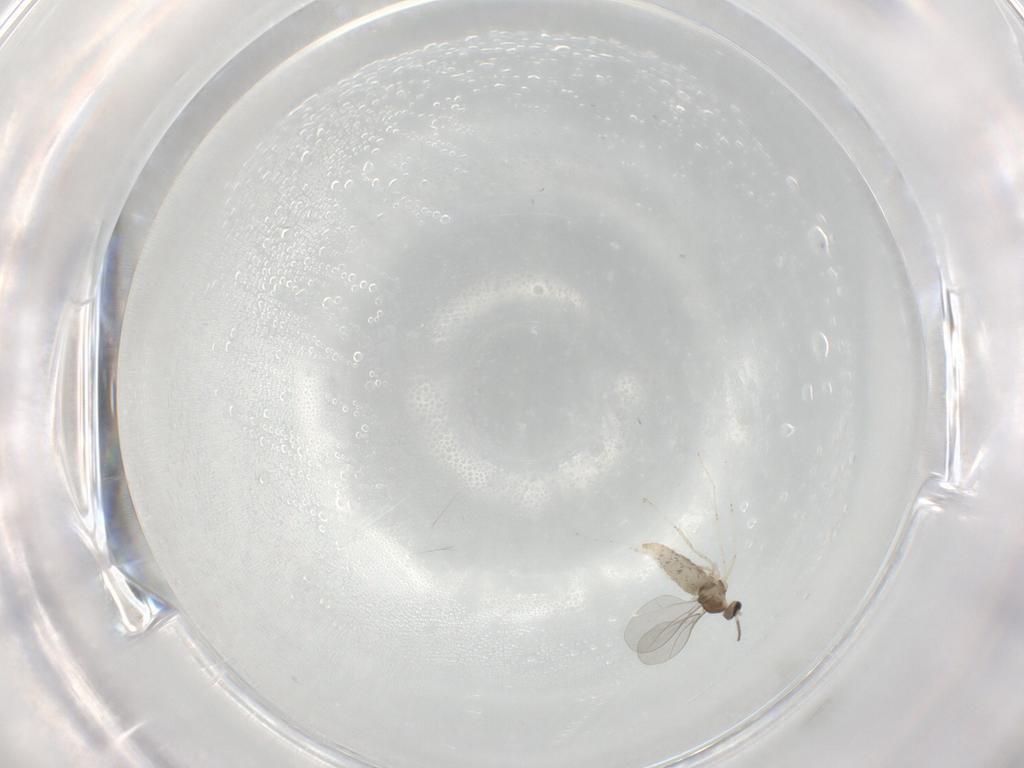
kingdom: Animalia
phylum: Arthropoda
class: Insecta
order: Diptera
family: Cecidomyiidae
